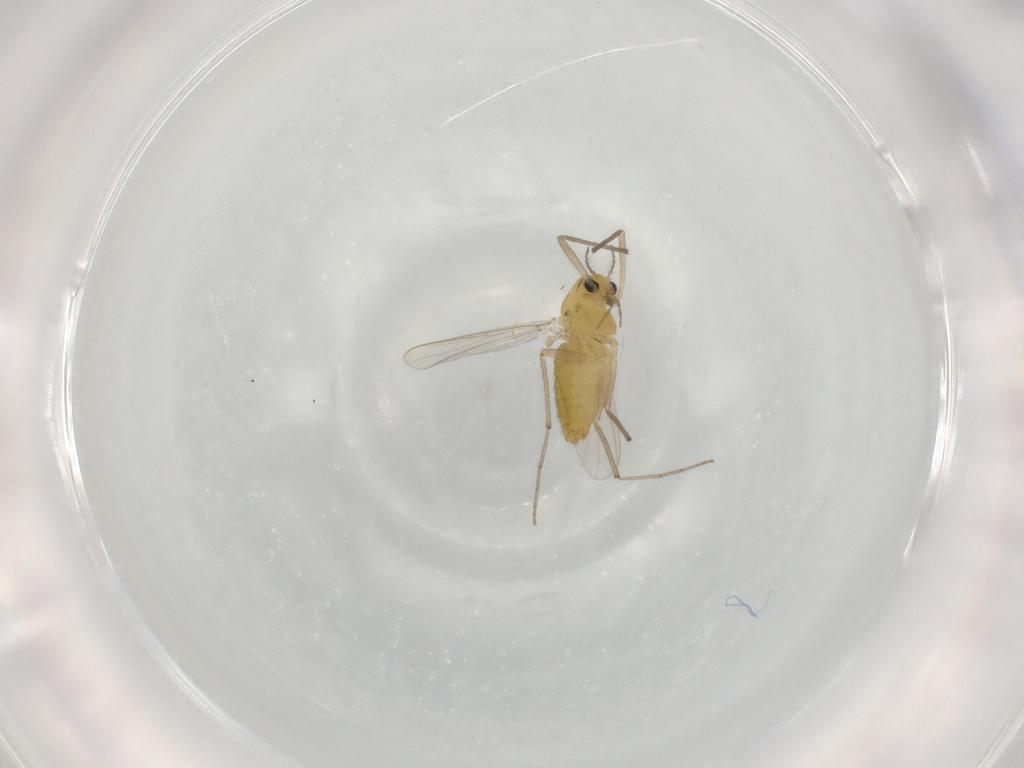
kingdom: Animalia
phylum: Arthropoda
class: Insecta
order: Diptera
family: Chironomidae
